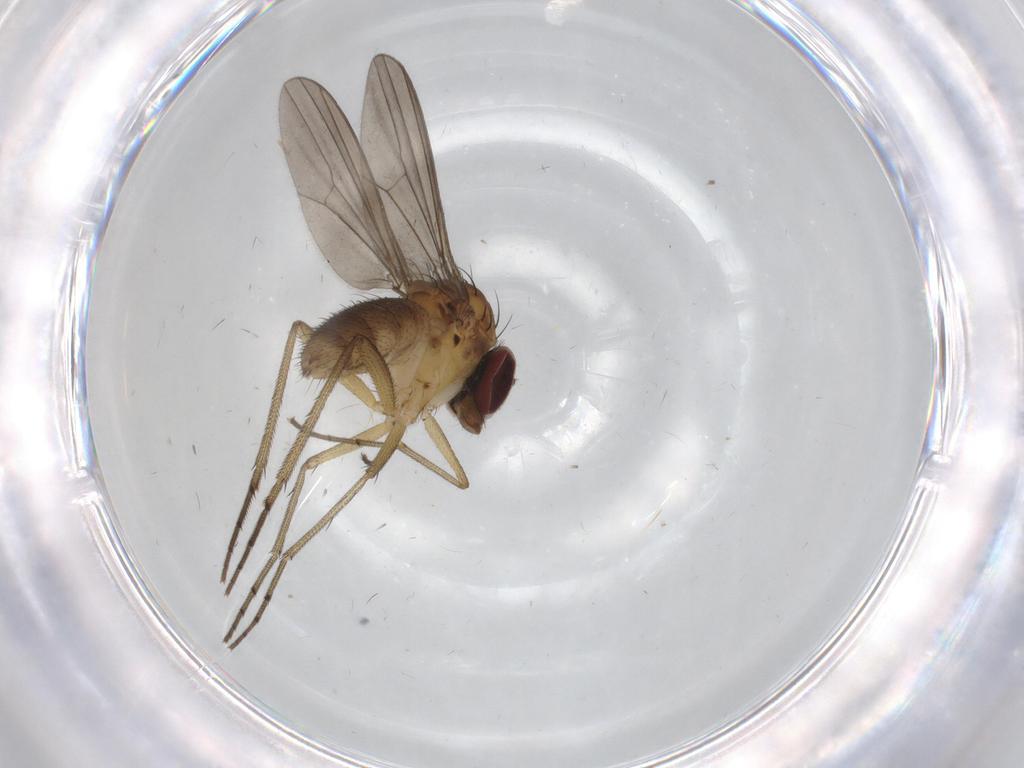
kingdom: Animalia
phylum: Arthropoda
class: Insecta
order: Diptera
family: Dolichopodidae
